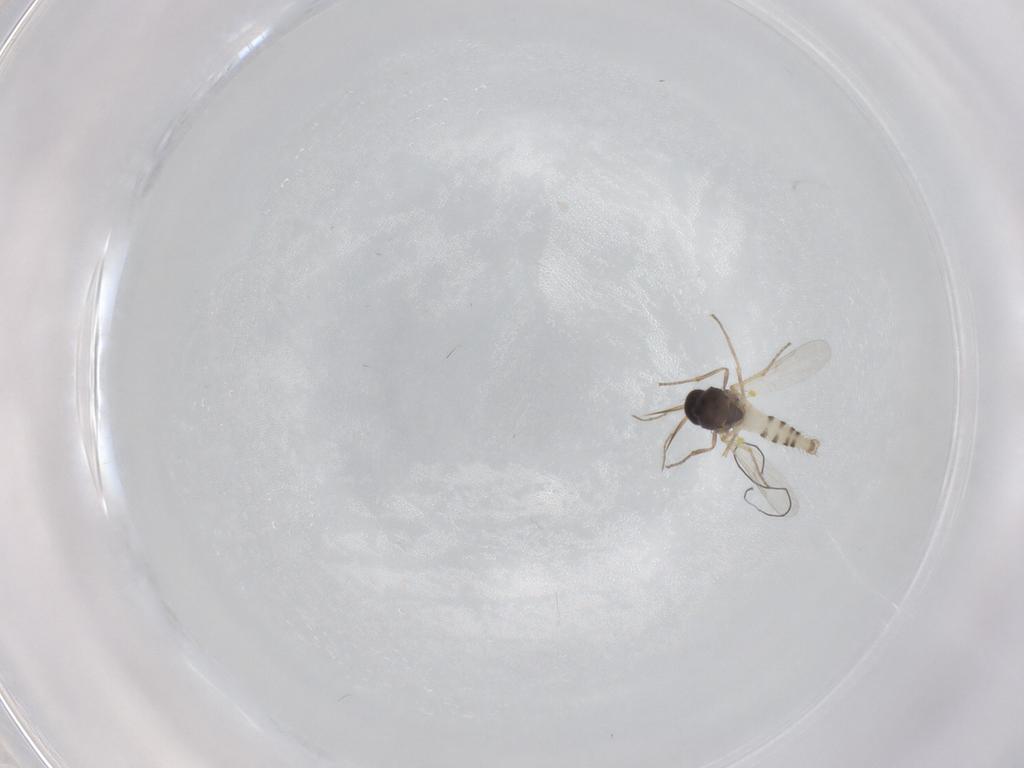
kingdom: Animalia
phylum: Arthropoda
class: Insecta
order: Diptera
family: Ceratopogonidae
